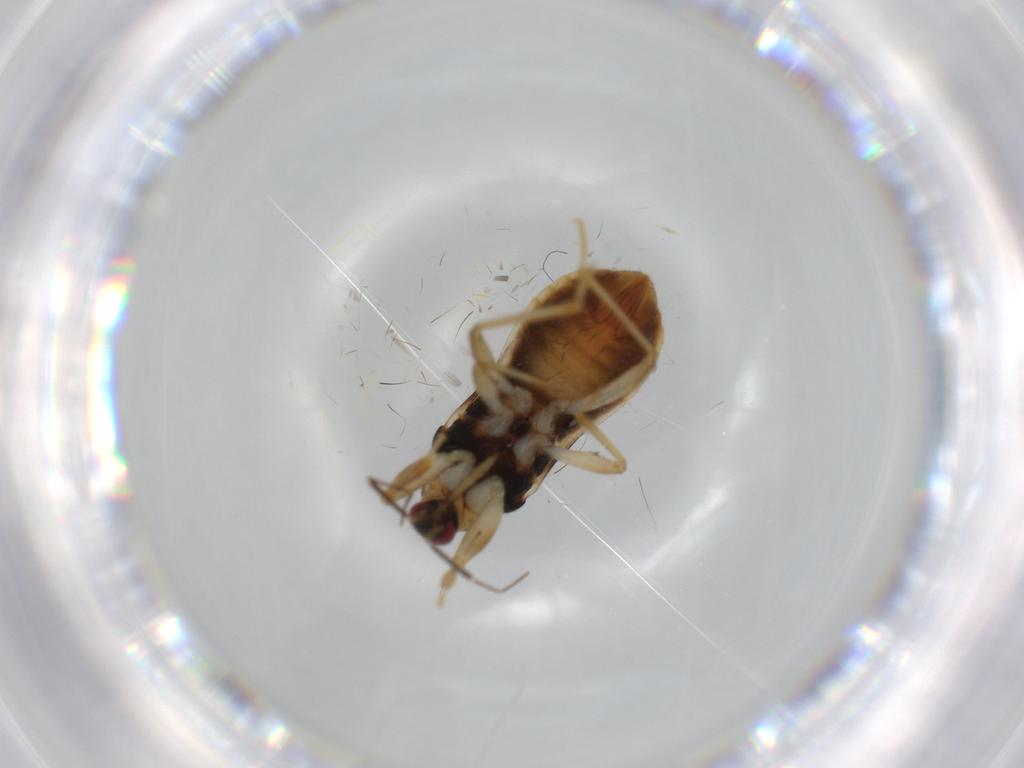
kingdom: Animalia
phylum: Arthropoda
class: Insecta
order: Hemiptera
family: Nabidae
